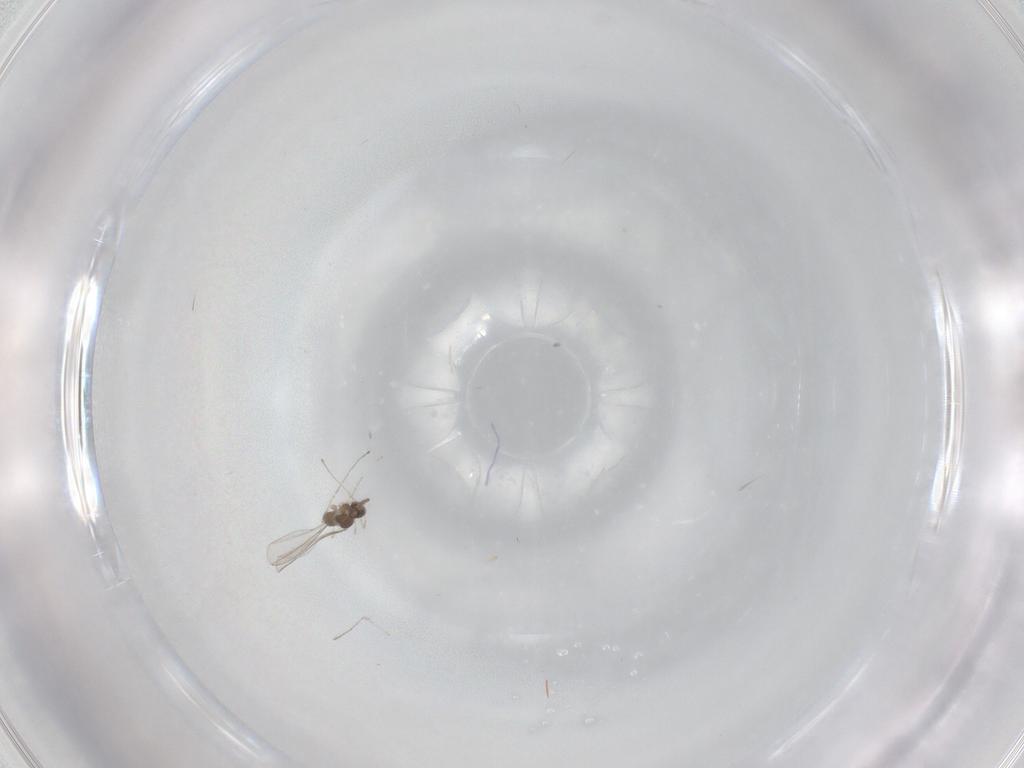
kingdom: Animalia
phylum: Arthropoda
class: Insecta
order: Diptera
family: Cecidomyiidae
